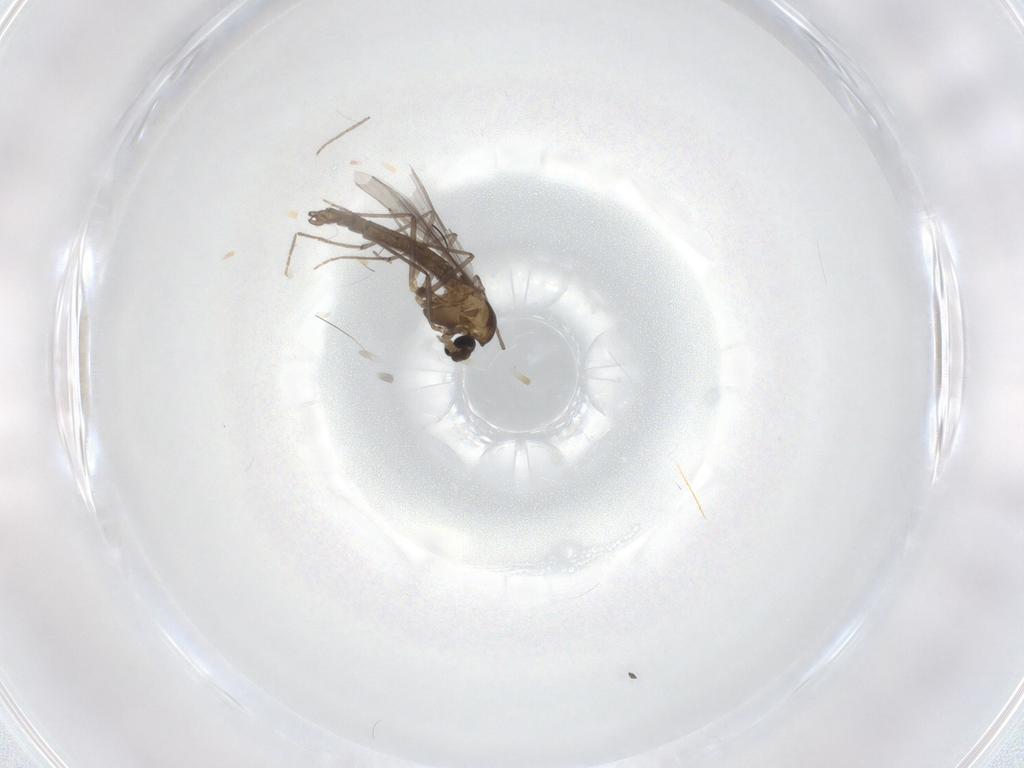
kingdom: Animalia
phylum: Arthropoda
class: Insecta
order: Diptera
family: Chironomidae
